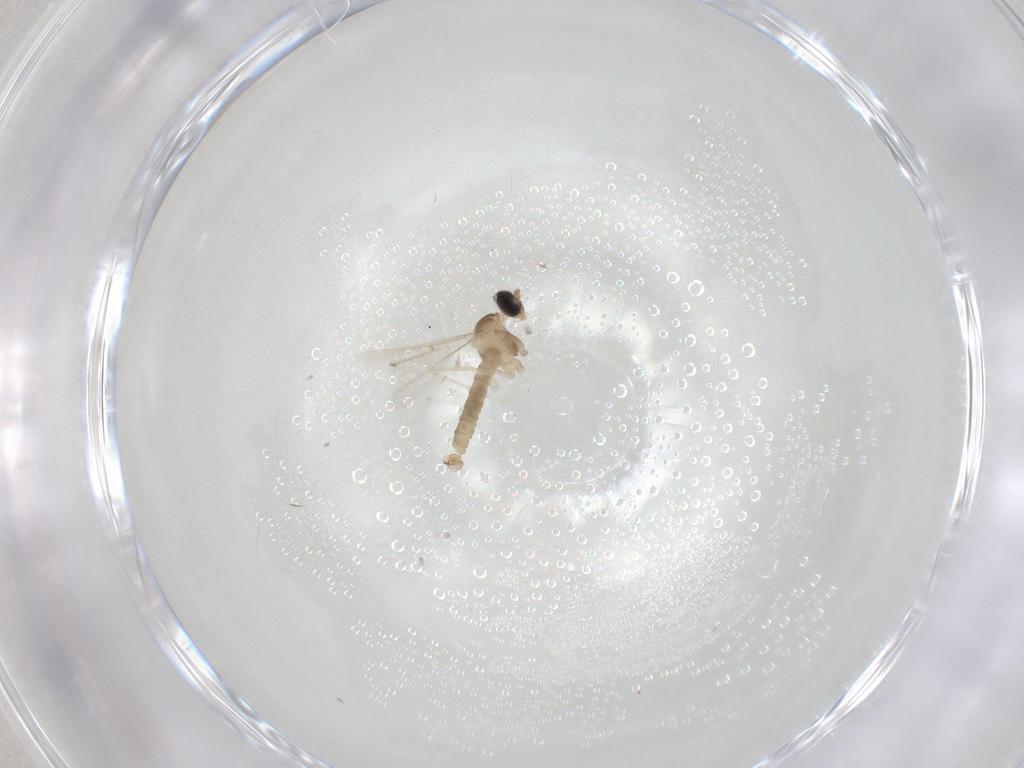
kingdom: Animalia
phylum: Arthropoda
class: Insecta
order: Diptera
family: Cecidomyiidae
